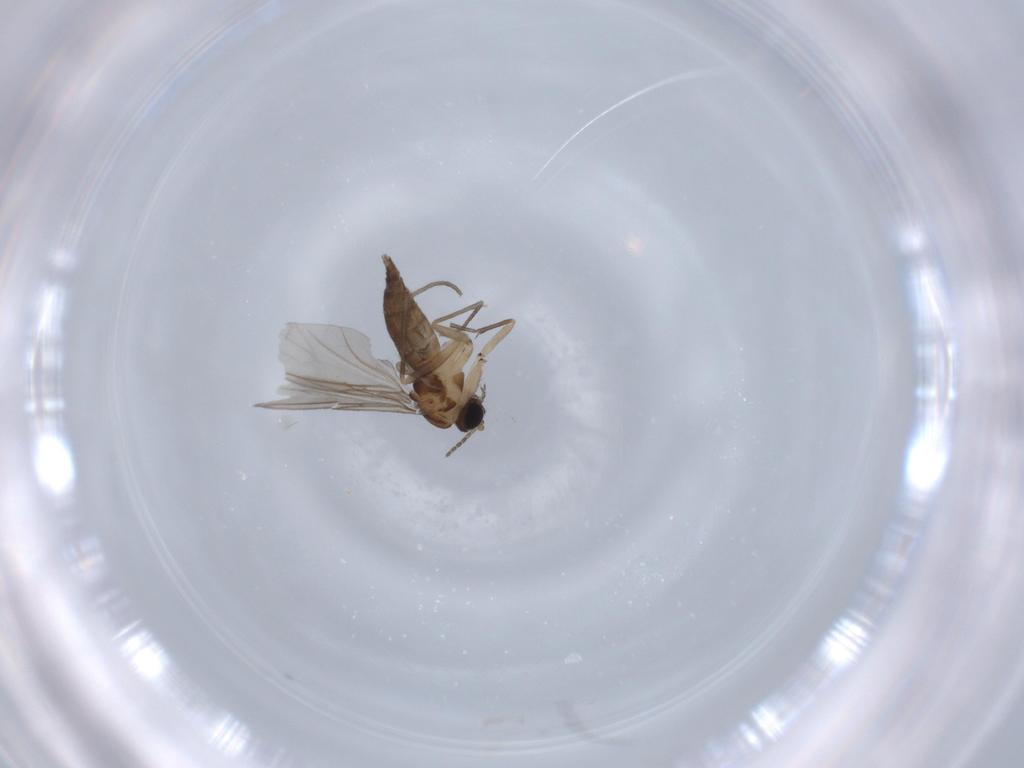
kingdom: Animalia
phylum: Arthropoda
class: Insecta
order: Diptera
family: Cecidomyiidae
